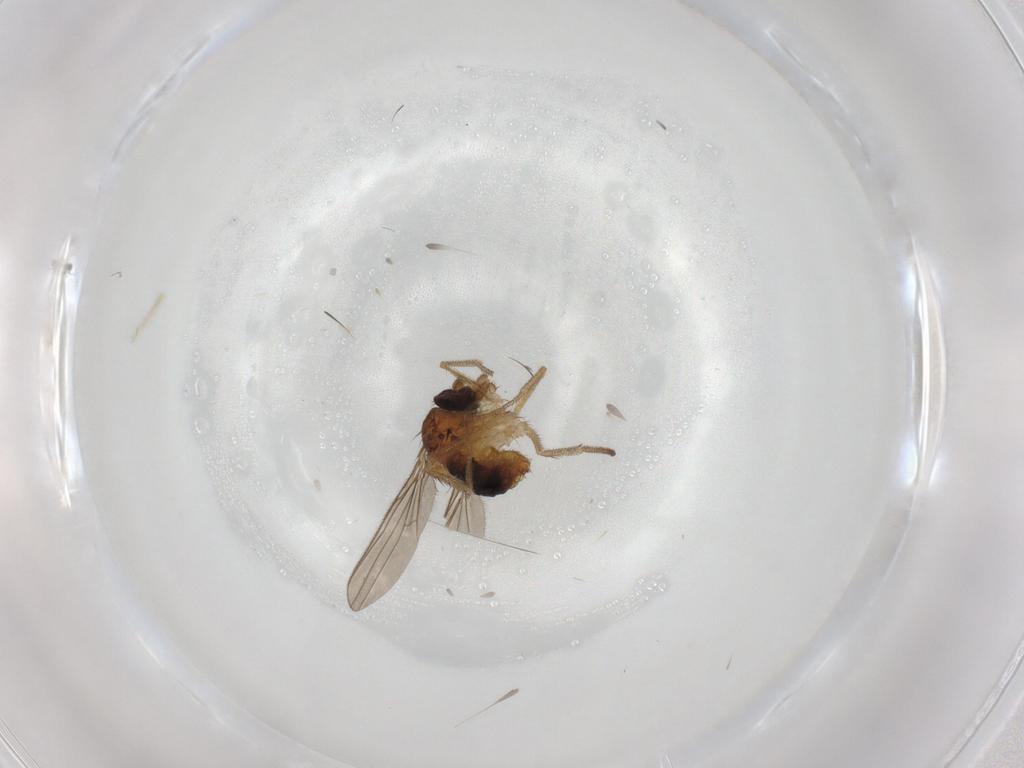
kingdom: Animalia
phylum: Arthropoda
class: Insecta
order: Diptera
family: Dolichopodidae
